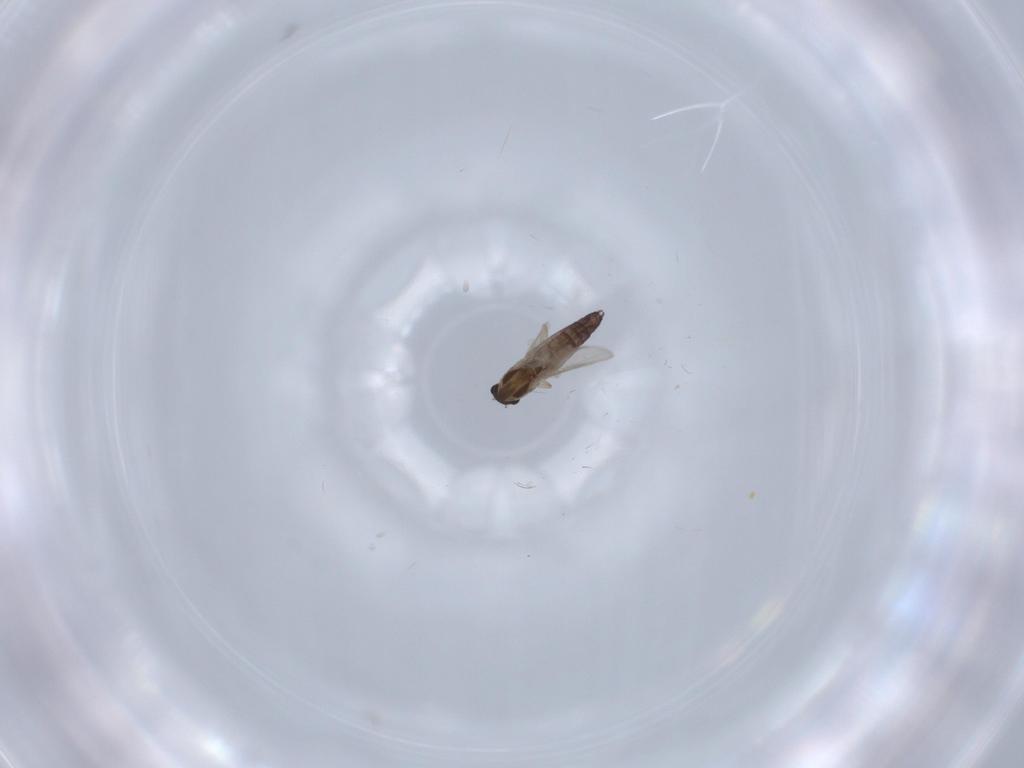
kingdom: Animalia
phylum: Arthropoda
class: Insecta
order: Diptera
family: Chironomidae
